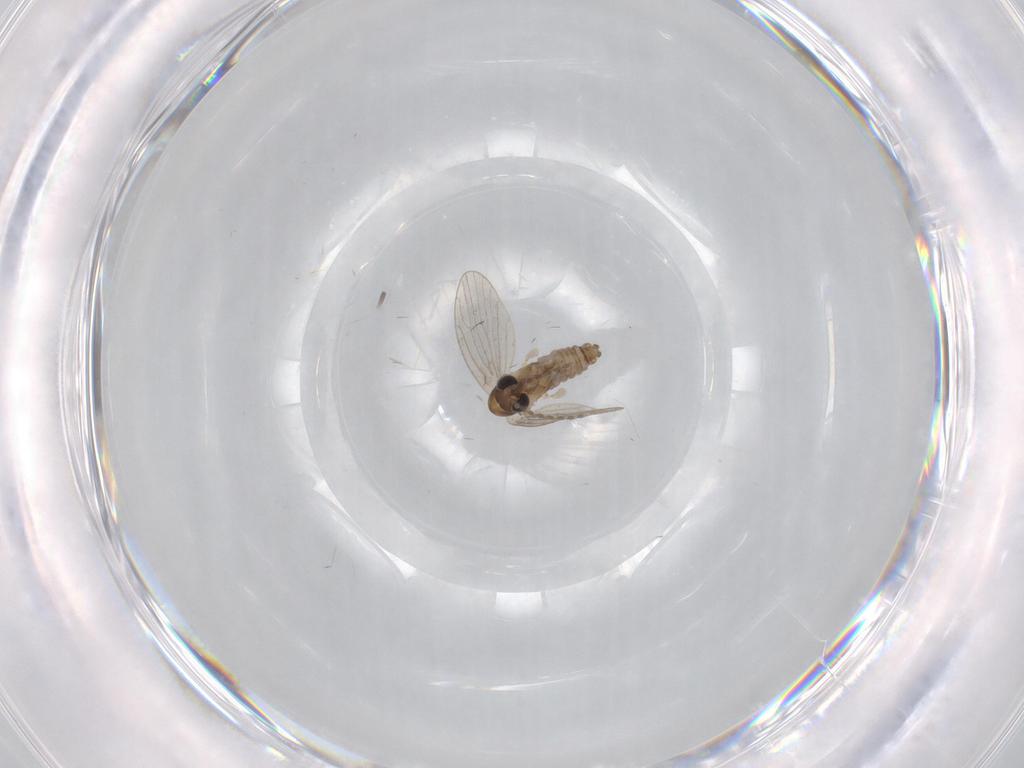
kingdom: Animalia
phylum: Arthropoda
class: Insecta
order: Diptera
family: Psychodidae
